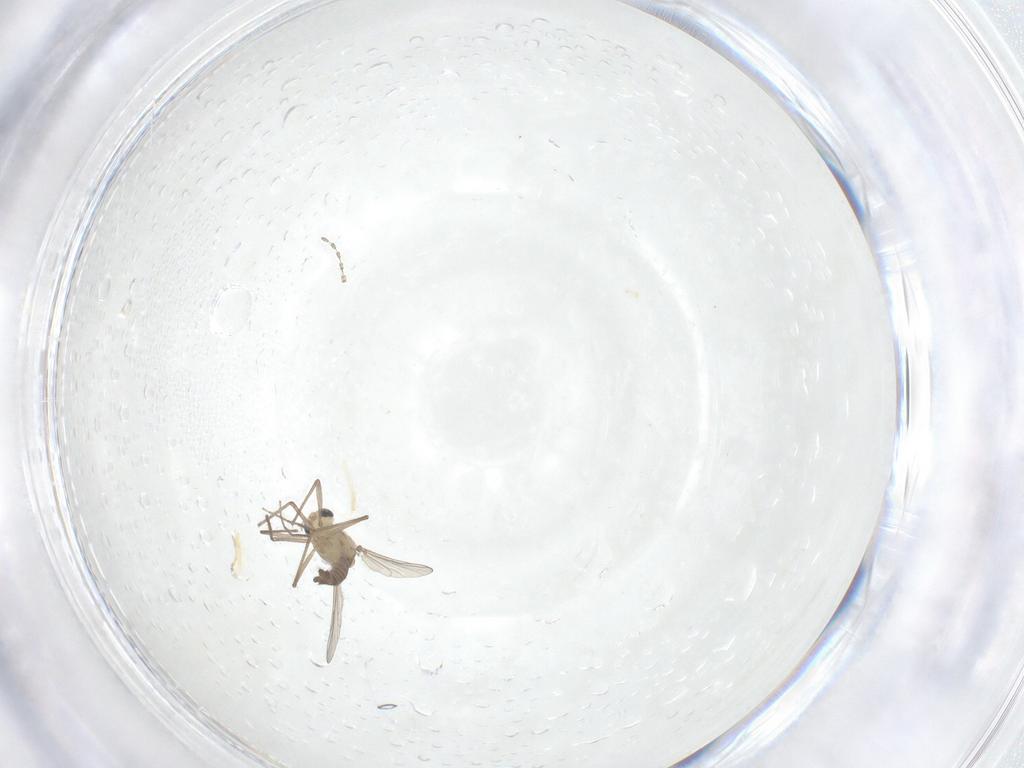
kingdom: Animalia
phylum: Arthropoda
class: Insecta
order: Diptera
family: Chironomidae
